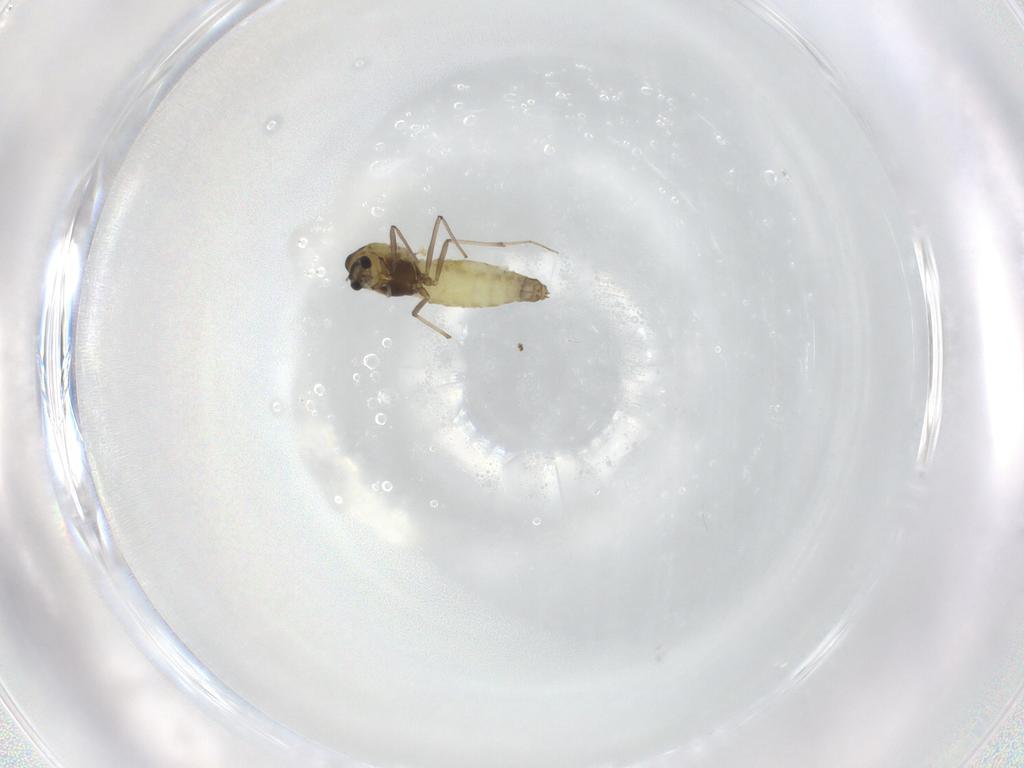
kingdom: Animalia
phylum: Arthropoda
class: Insecta
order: Diptera
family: Chironomidae
